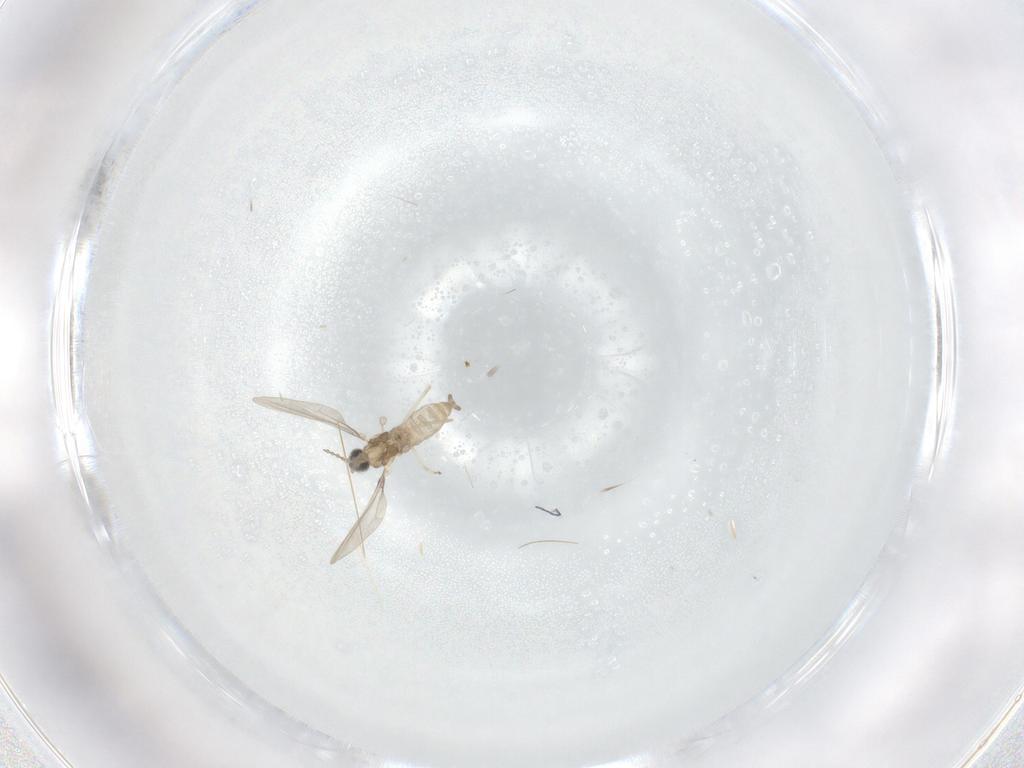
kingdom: Animalia
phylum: Arthropoda
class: Insecta
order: Diptera
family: Cecidomyiidae
